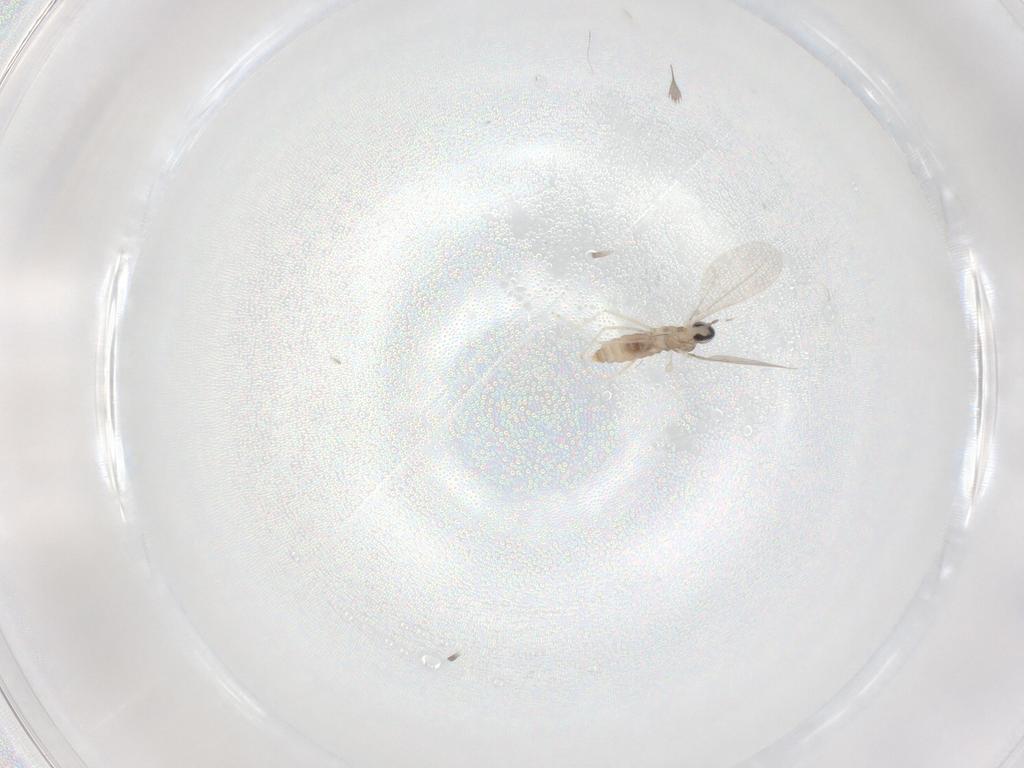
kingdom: Animalia
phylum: Arthropoda
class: Insecta
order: Diptera
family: Cecidomyiidae
